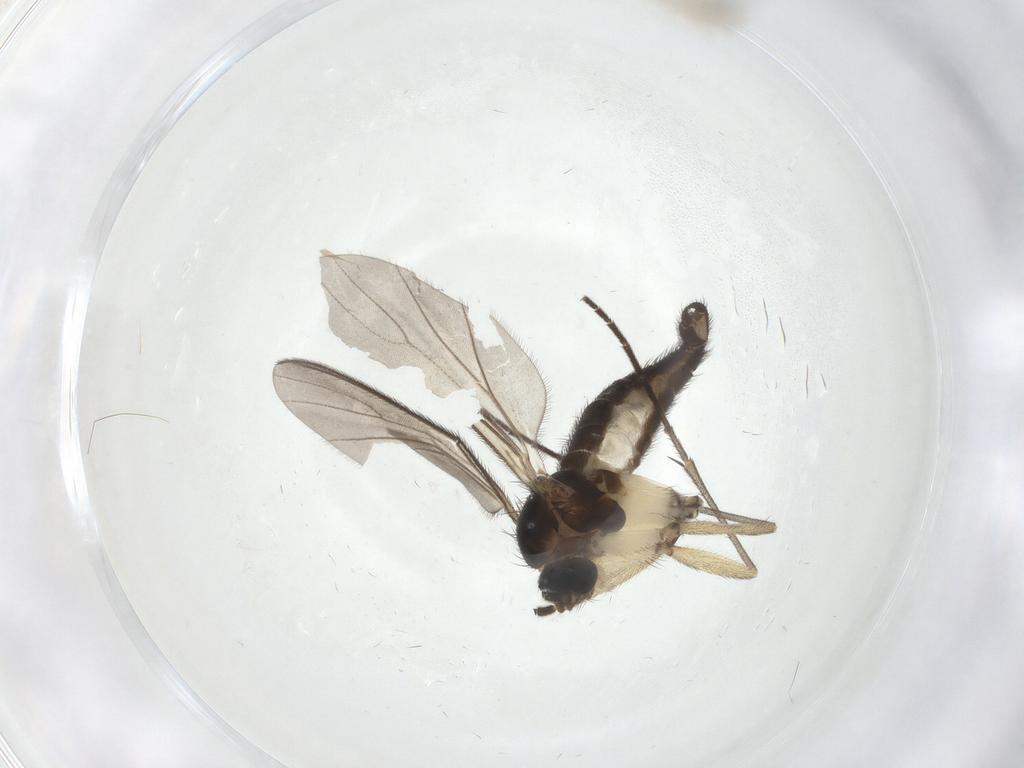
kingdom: Animalia
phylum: Arthropoda
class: Insecta
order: Diptera
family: Sciaridae
